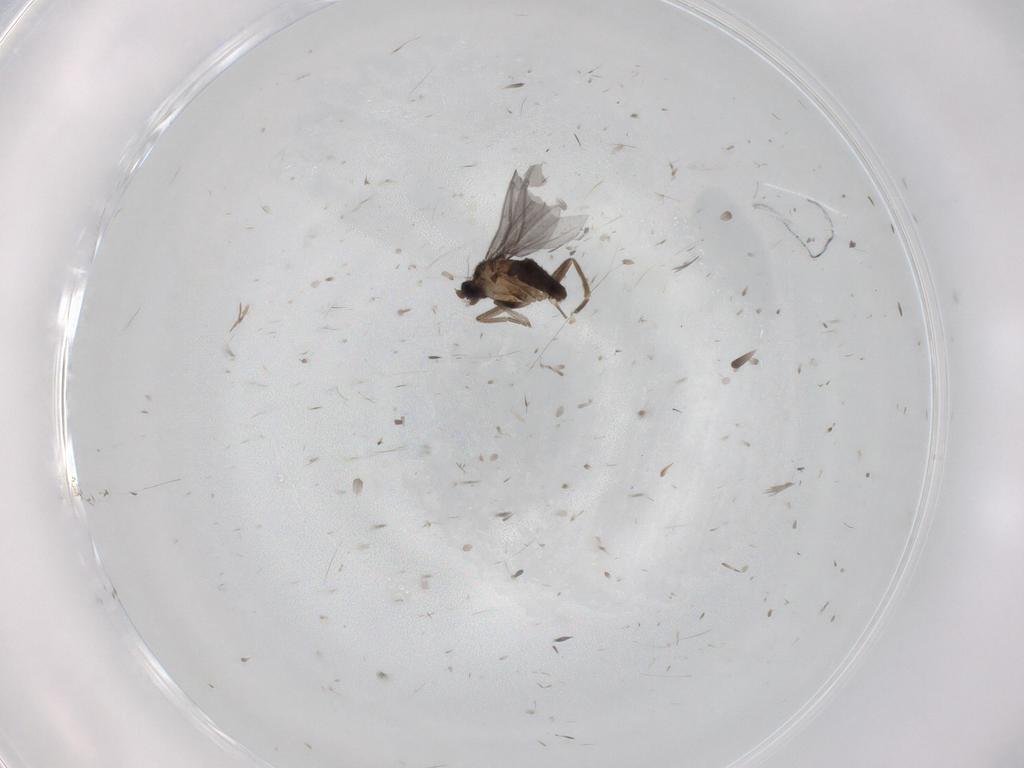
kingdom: Animalia
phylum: Arthropoda
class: Insecta
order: Diptera
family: Phoridae
